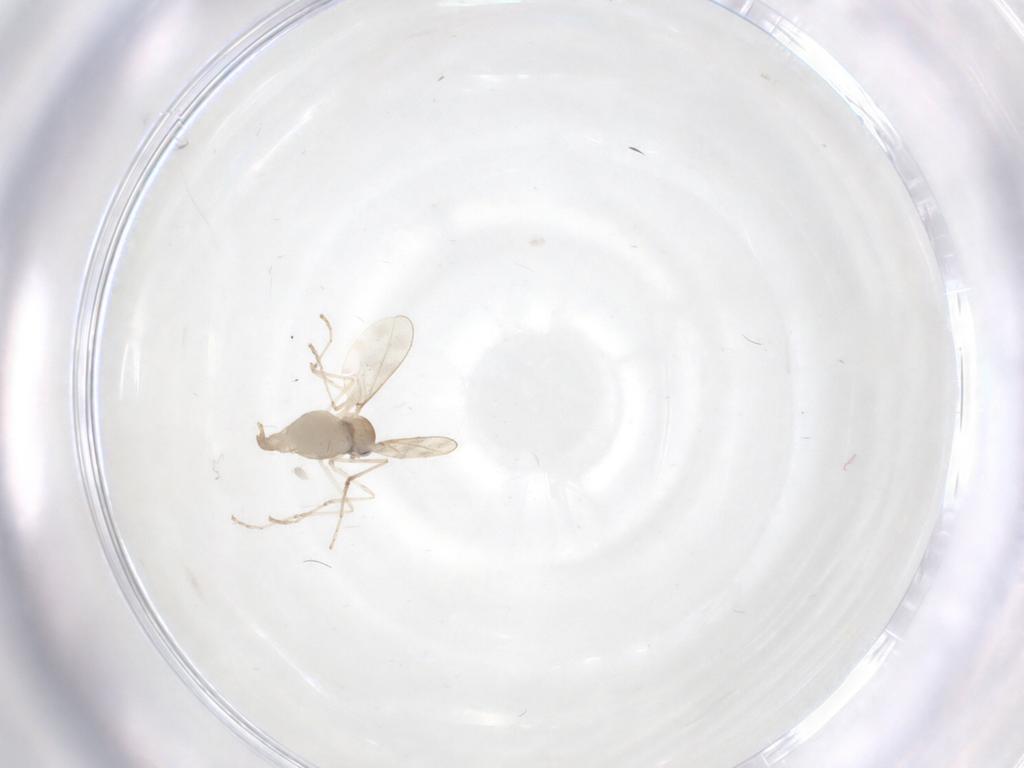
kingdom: Animalia
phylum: Arthropoda
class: Insecta
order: Diptera
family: Cecidomyiidae
